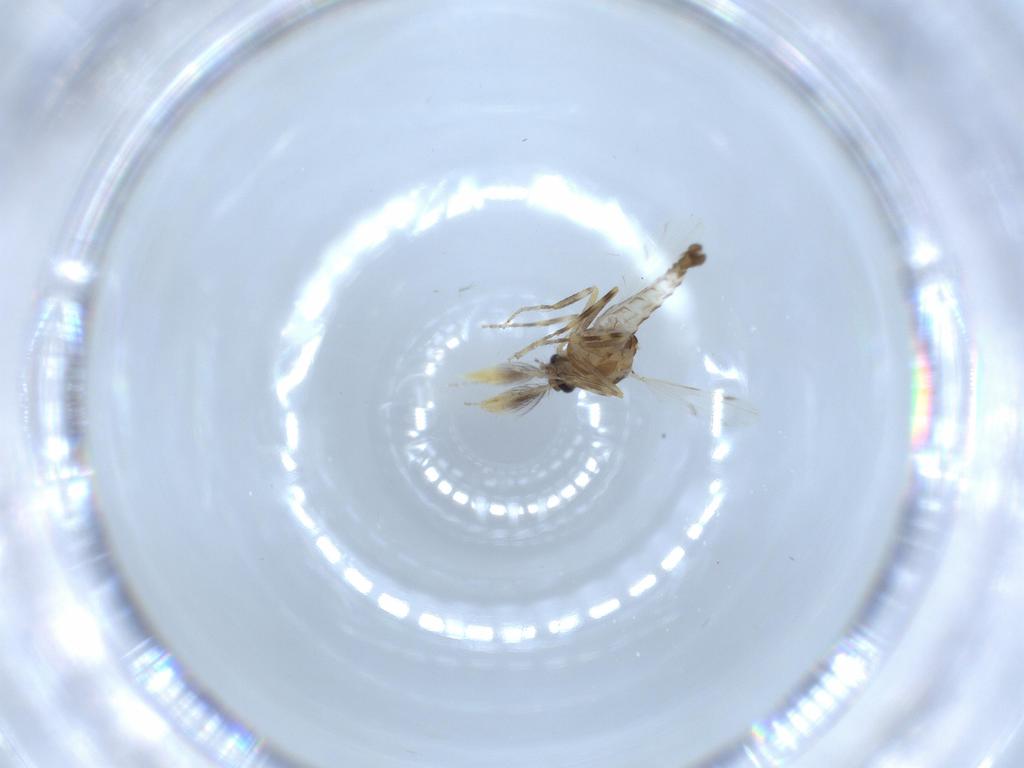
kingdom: Animalia
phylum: Arthropoda
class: Insecta
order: Diptera
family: Ceratopogonidae
